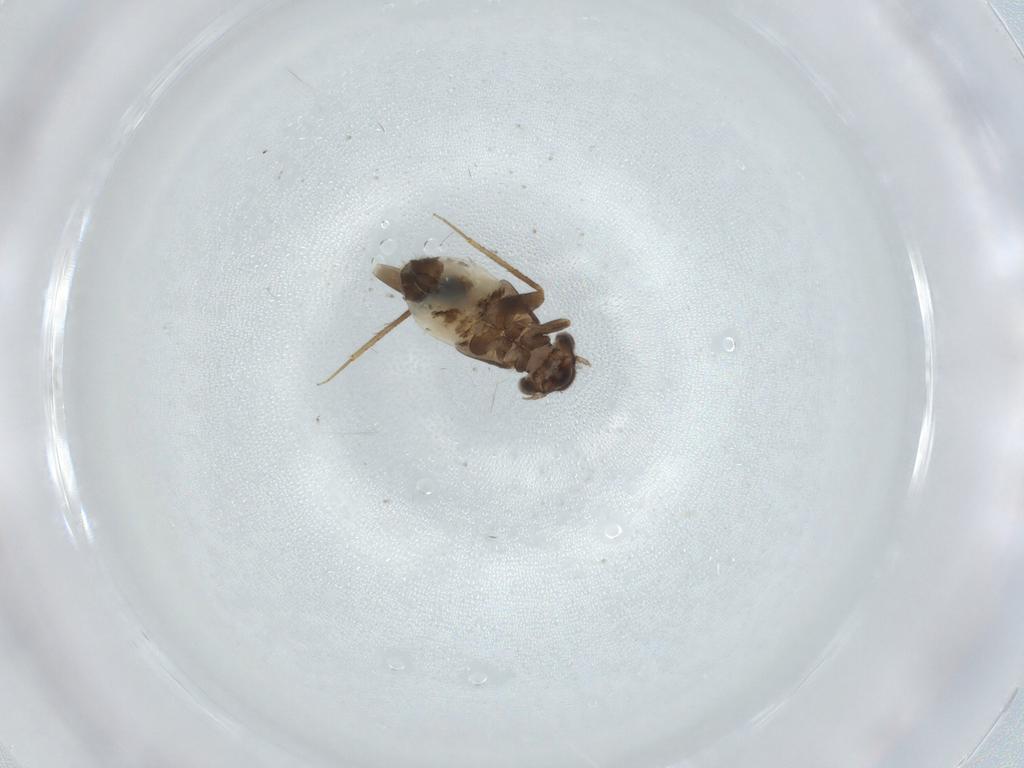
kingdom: Animalia
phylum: Arthropoda
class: Insecta
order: Psocodea
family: Lepidopsocidae
